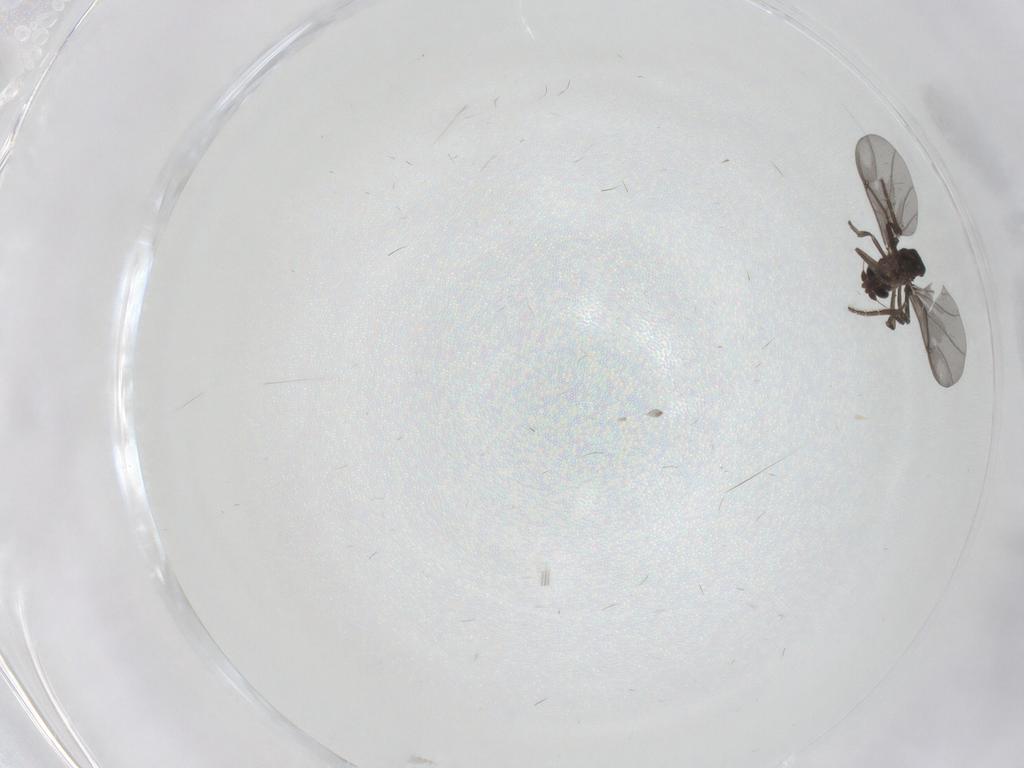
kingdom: Animalia
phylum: Arthropoda
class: Insecta
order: Diptera
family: Phoridae
